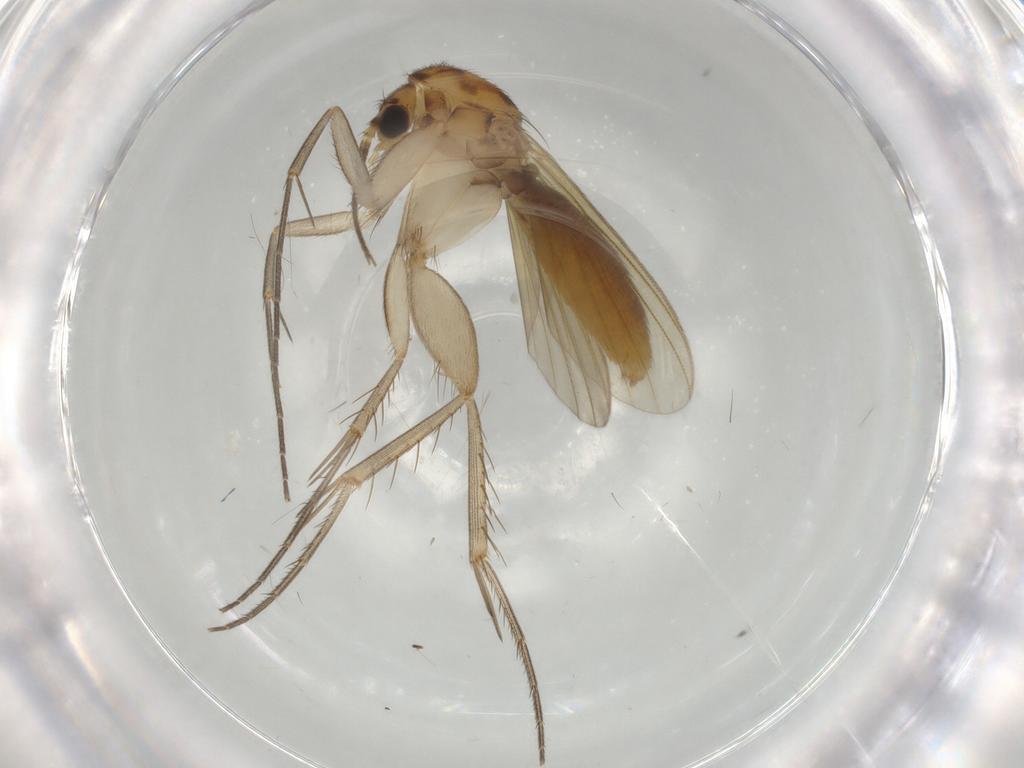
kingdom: Animalia
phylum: Arthropoda
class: Insecta
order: Diptera
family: Mycetophilidae
